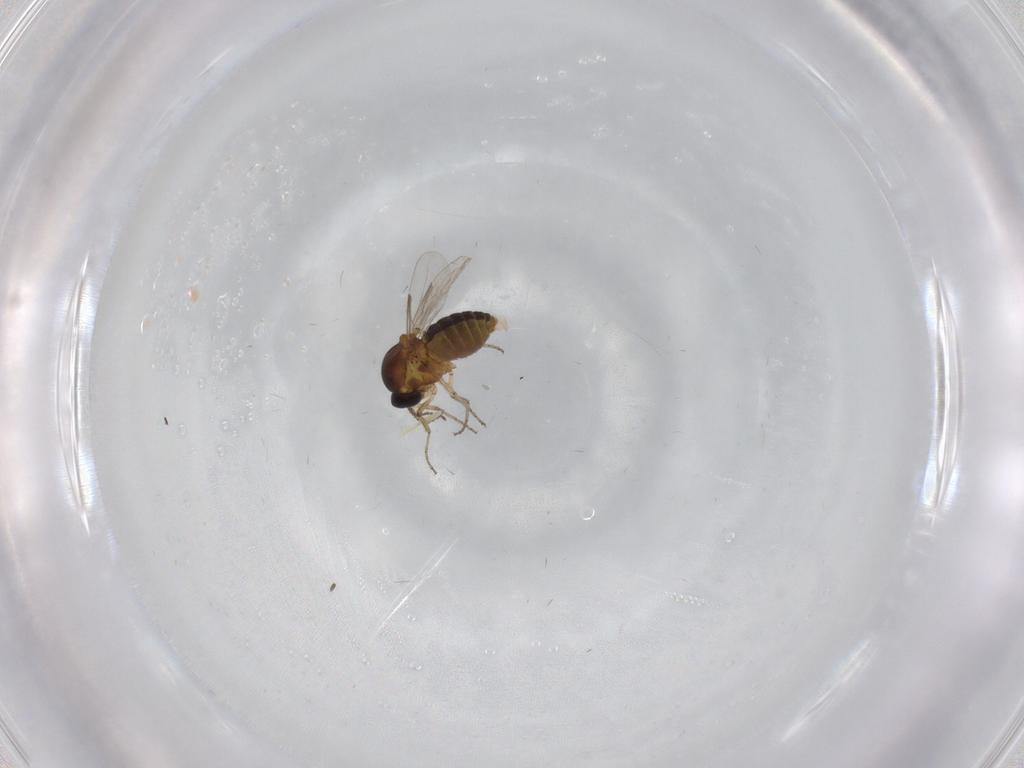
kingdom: Animalia
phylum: Arthropoda
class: Insecta
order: Diptera
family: Ceratopogonidae
